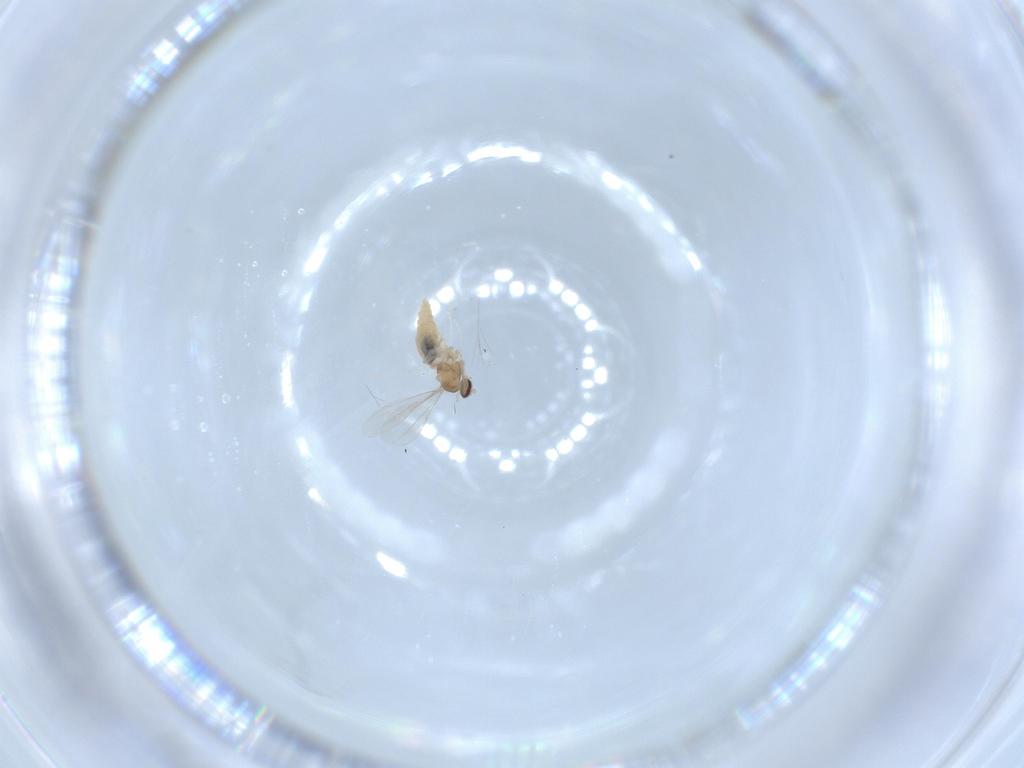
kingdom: Animalia
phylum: Arthropoda
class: Insecta
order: Diptera
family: Cecidomyiidae
